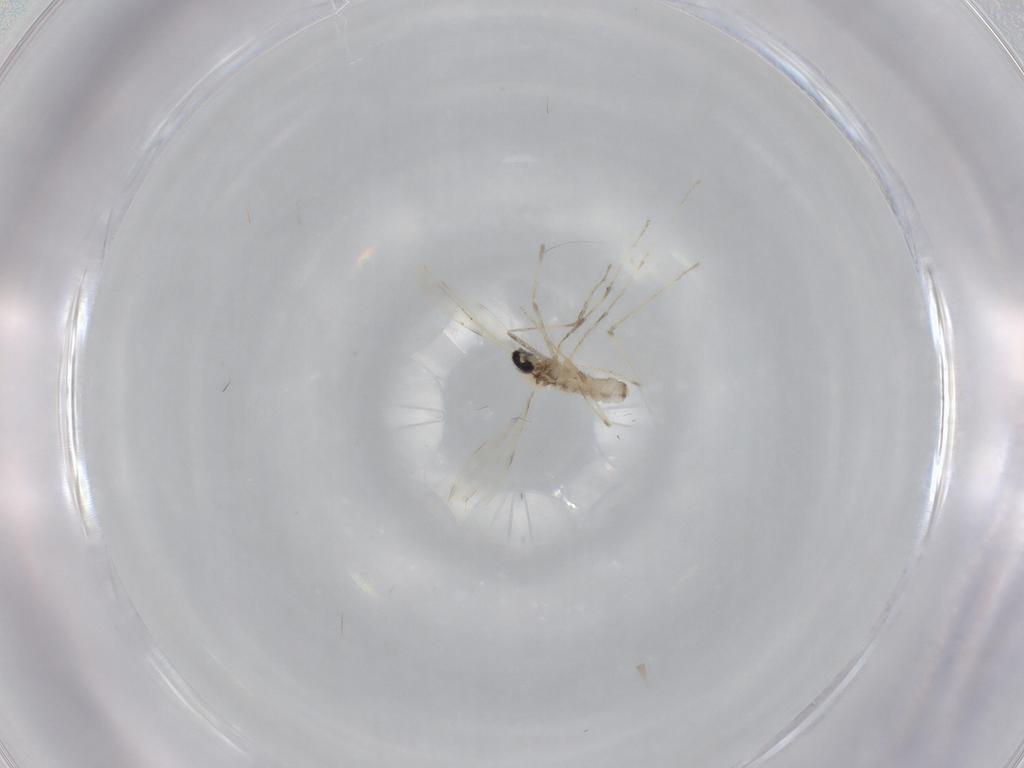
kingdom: Animalia
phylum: Arthropoda
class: Insecta
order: Diptera
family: Cecidomyiidae
